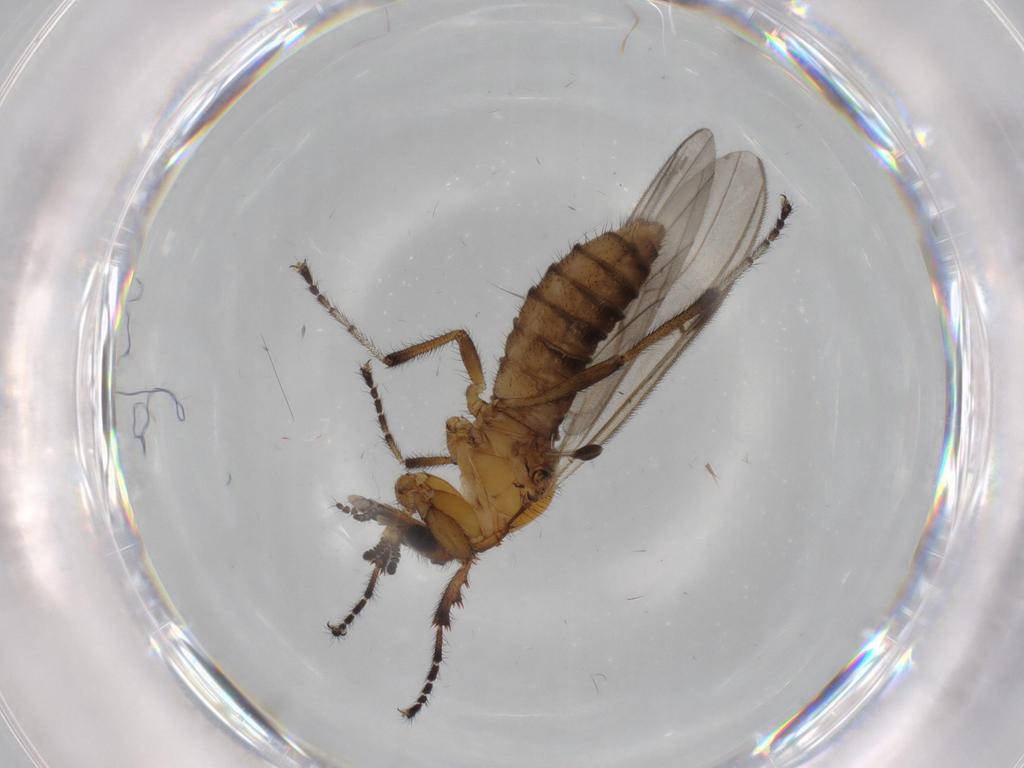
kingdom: Animalia
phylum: Arthropoda
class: Insecta
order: Diptera
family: Bibionidae
